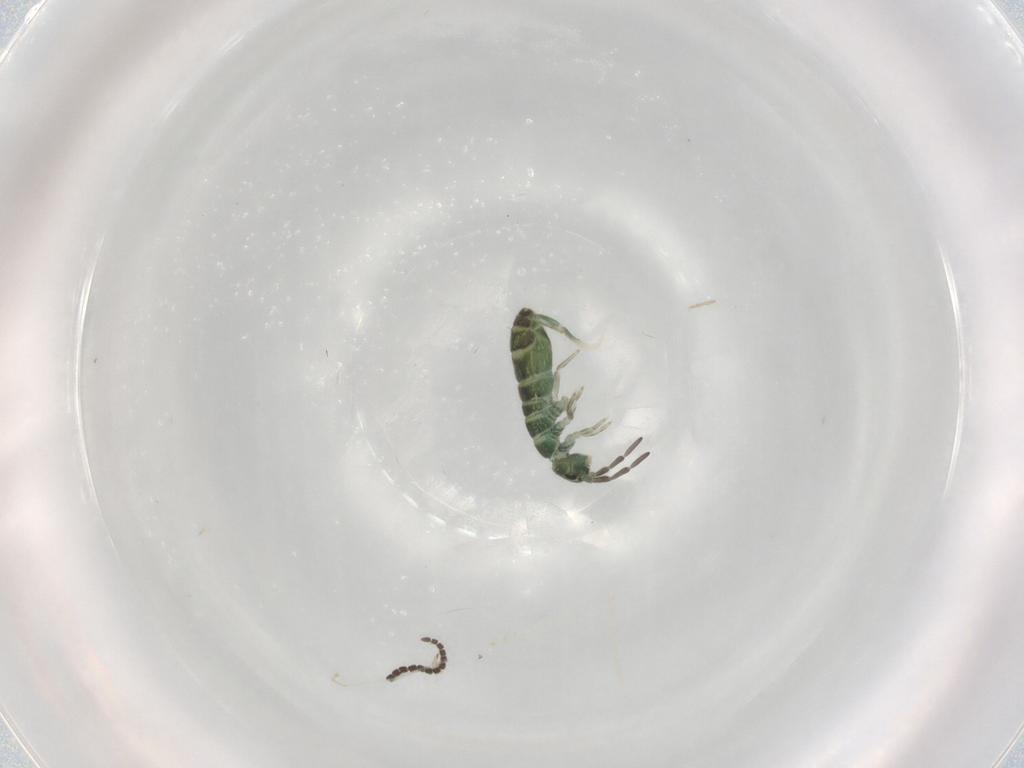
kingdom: Animalia
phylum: Arthropoda
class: Collembola
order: Entomobryomorpha
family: Isotomidae
